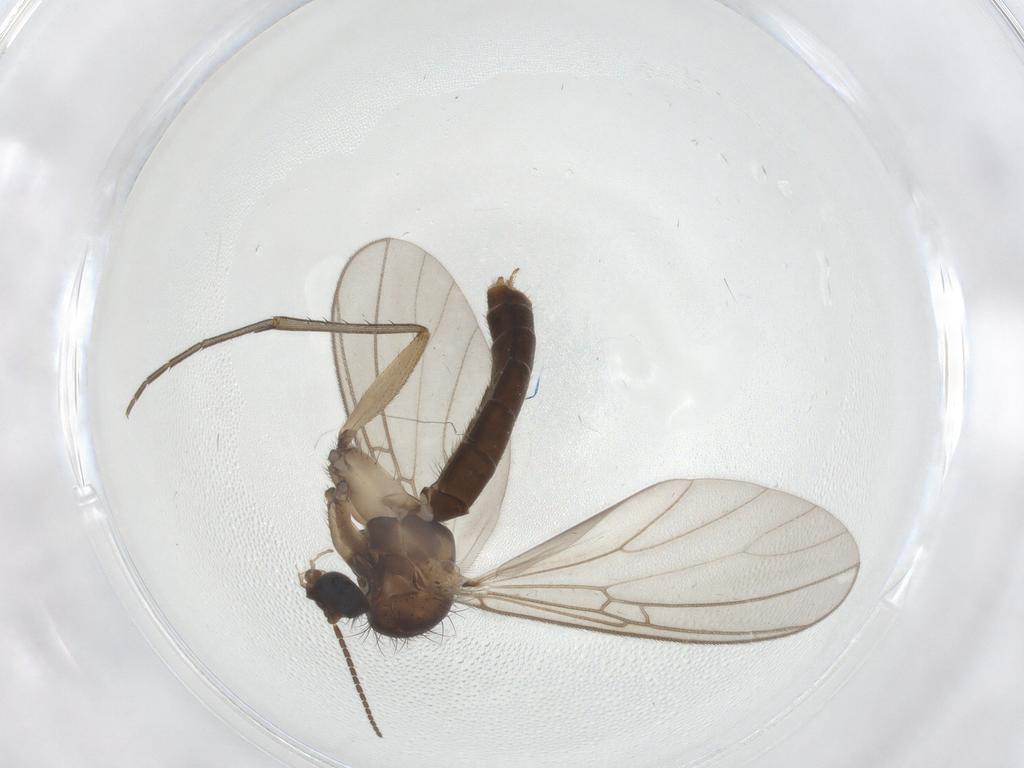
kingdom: Animalia
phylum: Arthropoda
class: Insecta
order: Diptera
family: Mycetophilidae
